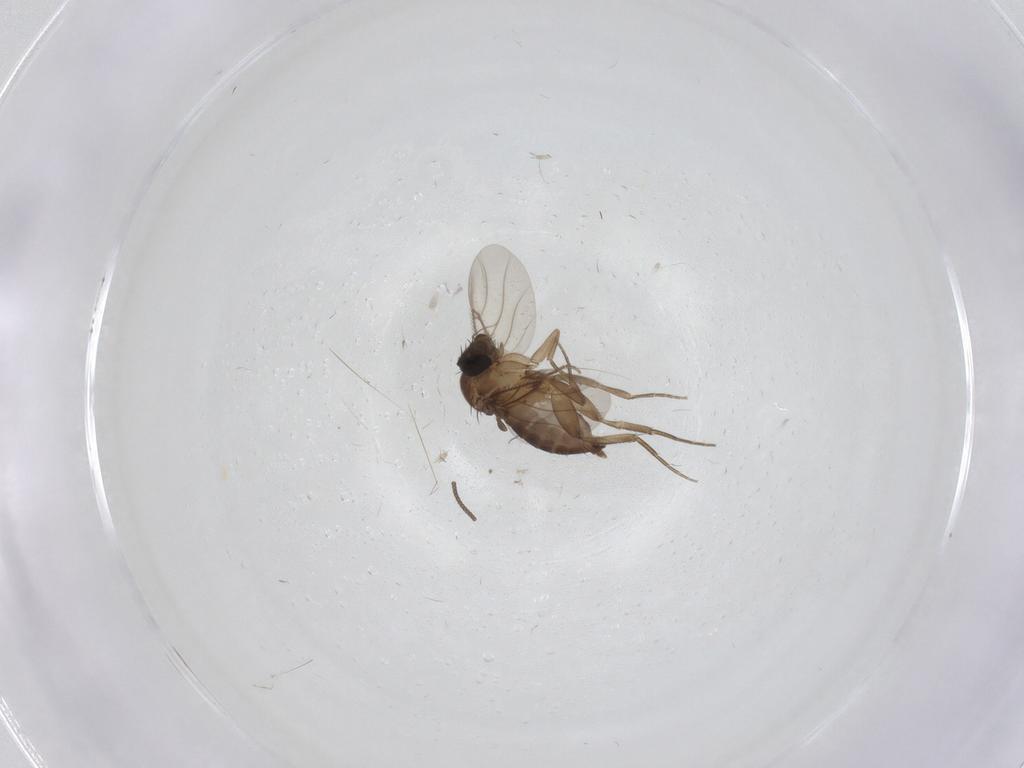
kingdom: Animalia
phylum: Arthropoda
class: Insecta
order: Diptera
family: Phoridae
